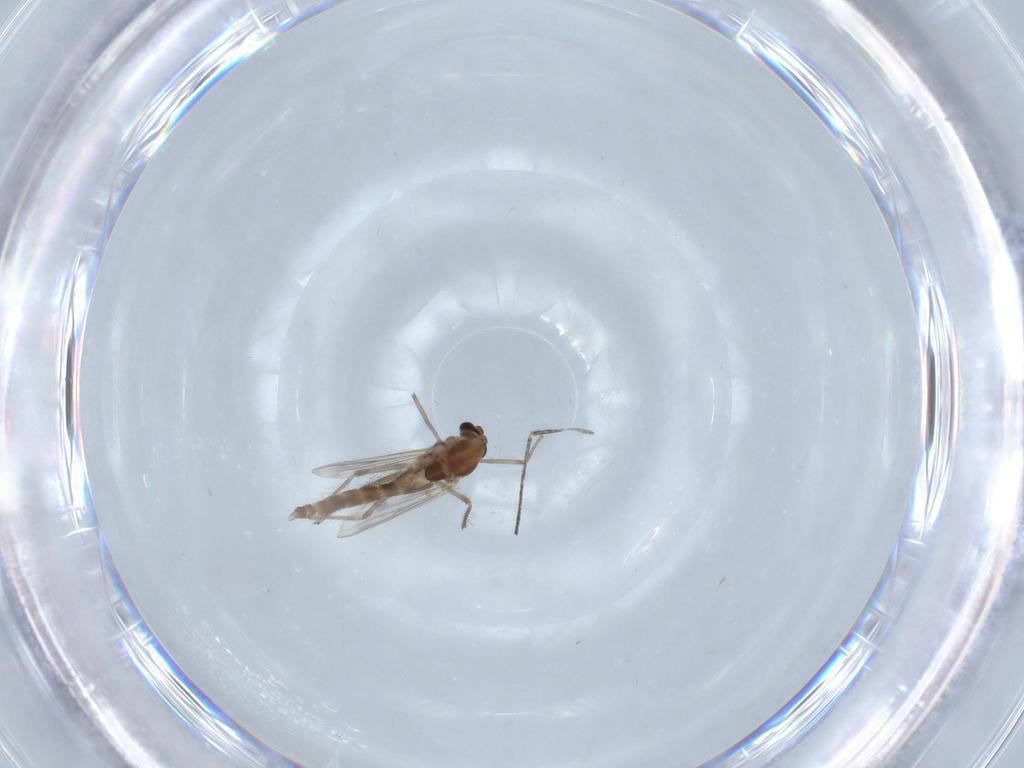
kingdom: Animalia
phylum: Arthropoda
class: Insecta
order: Diptera
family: Chironomidae
